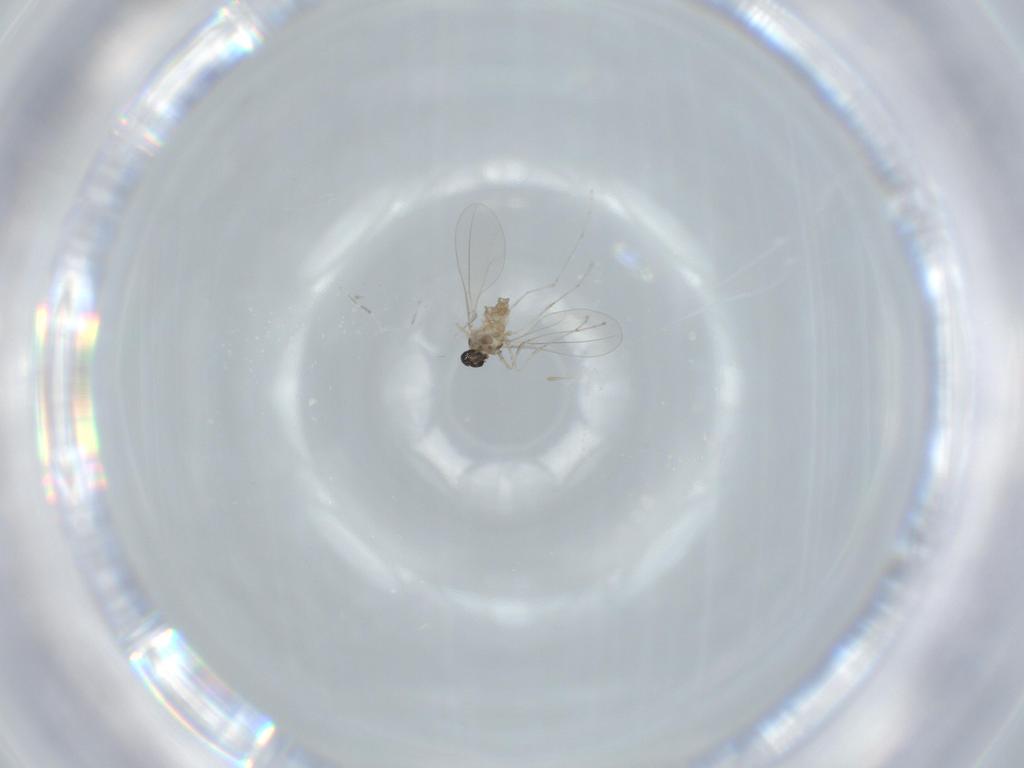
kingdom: Animalia
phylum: Arthropoda
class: Insecta
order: Diptera
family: Cecidomyiidae
